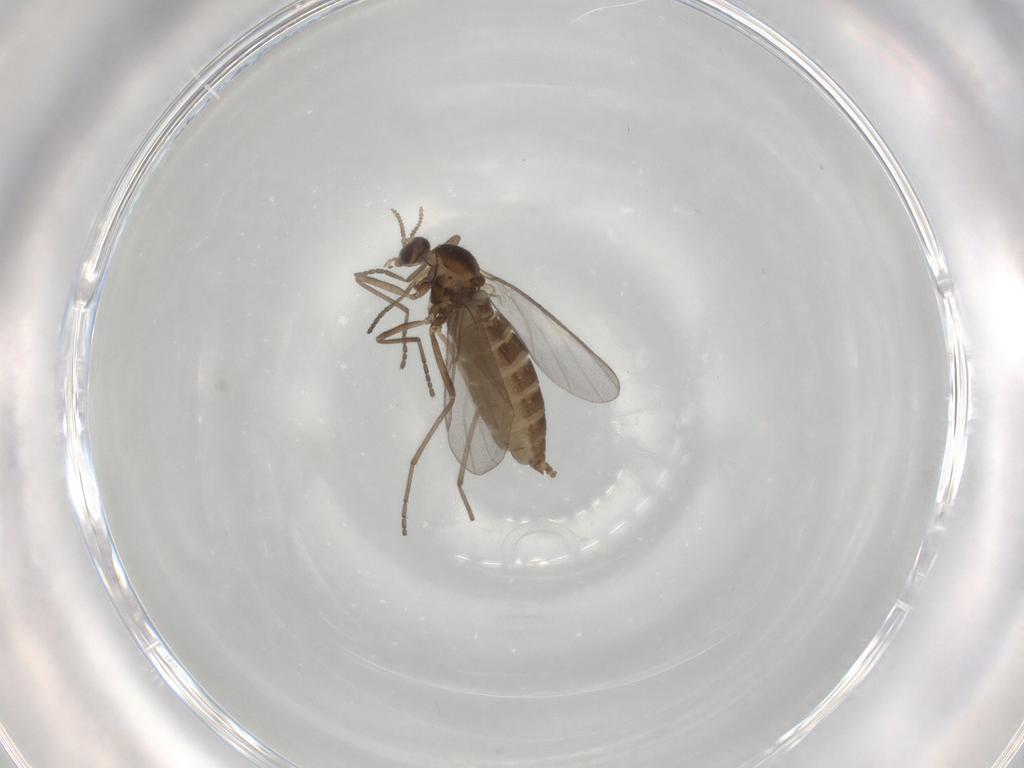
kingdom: Animalia
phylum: Arthropoda
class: Insecta
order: Diptera
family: Cecidomyiidae
